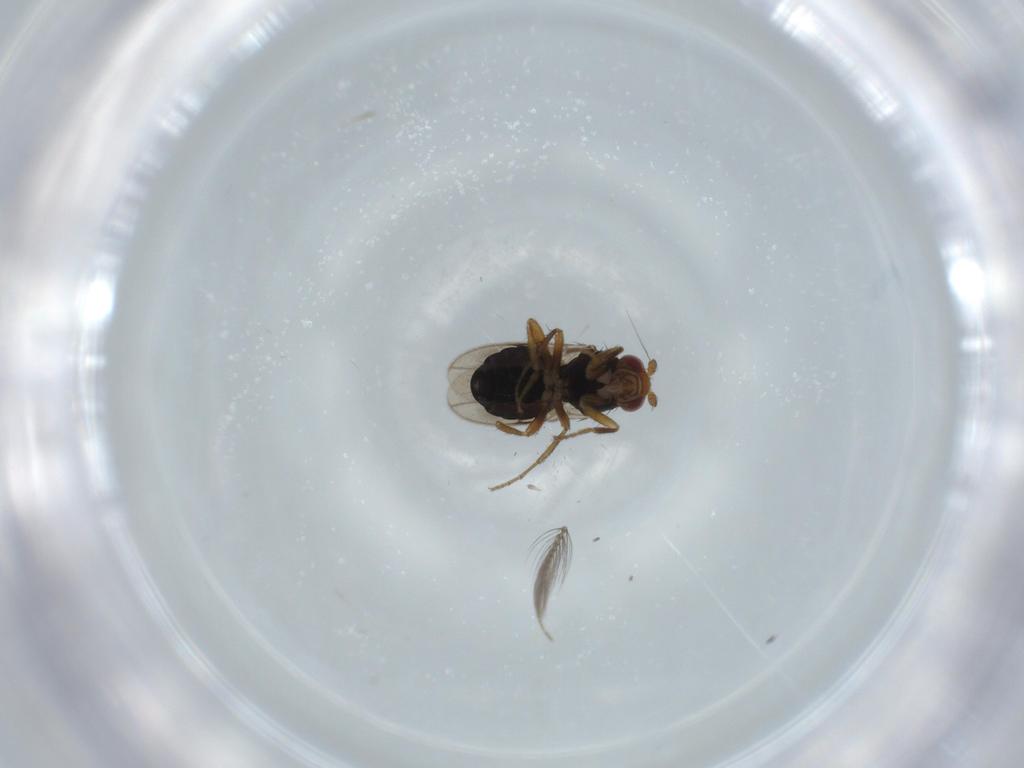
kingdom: Animalia
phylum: Arthropoda
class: Insecta
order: Diptera
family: Sphaeroceridae
